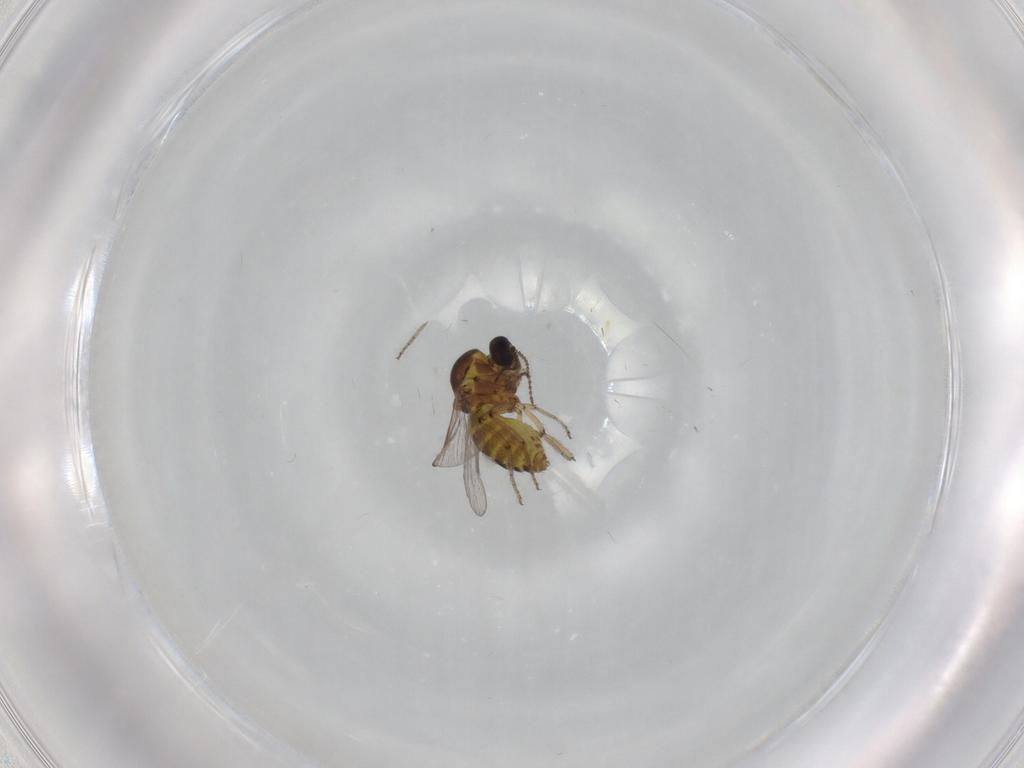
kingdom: Animalia
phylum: Arthropoda
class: Insecta
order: Diptera
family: Ceratopogonidae
